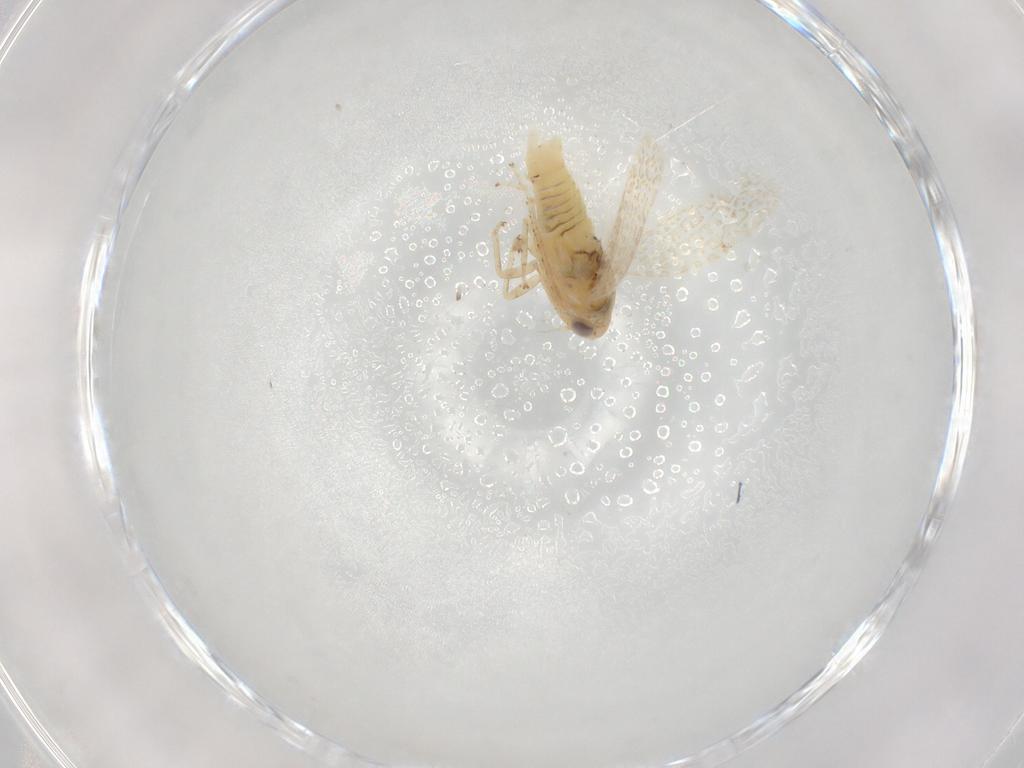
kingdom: Animalia
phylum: Arthropoda
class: Insecta
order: Hemiptera
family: Cicadellidae
